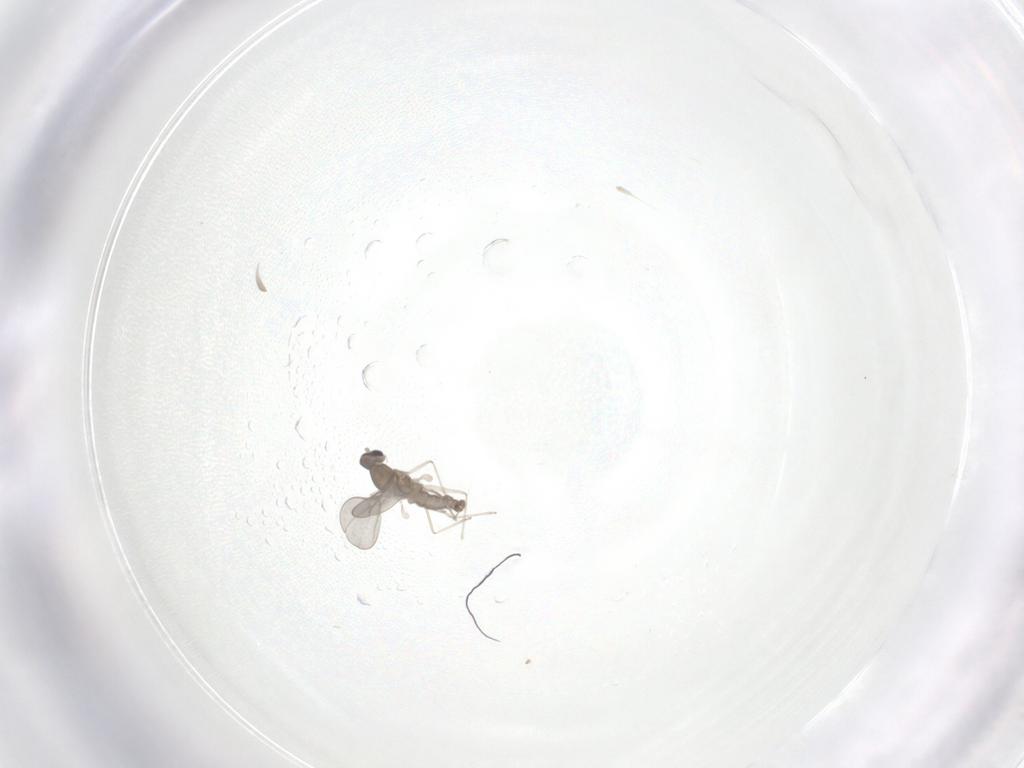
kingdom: Animalia
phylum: Arthropoda
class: Insecta
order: Diptera
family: Cecidomyiidae
